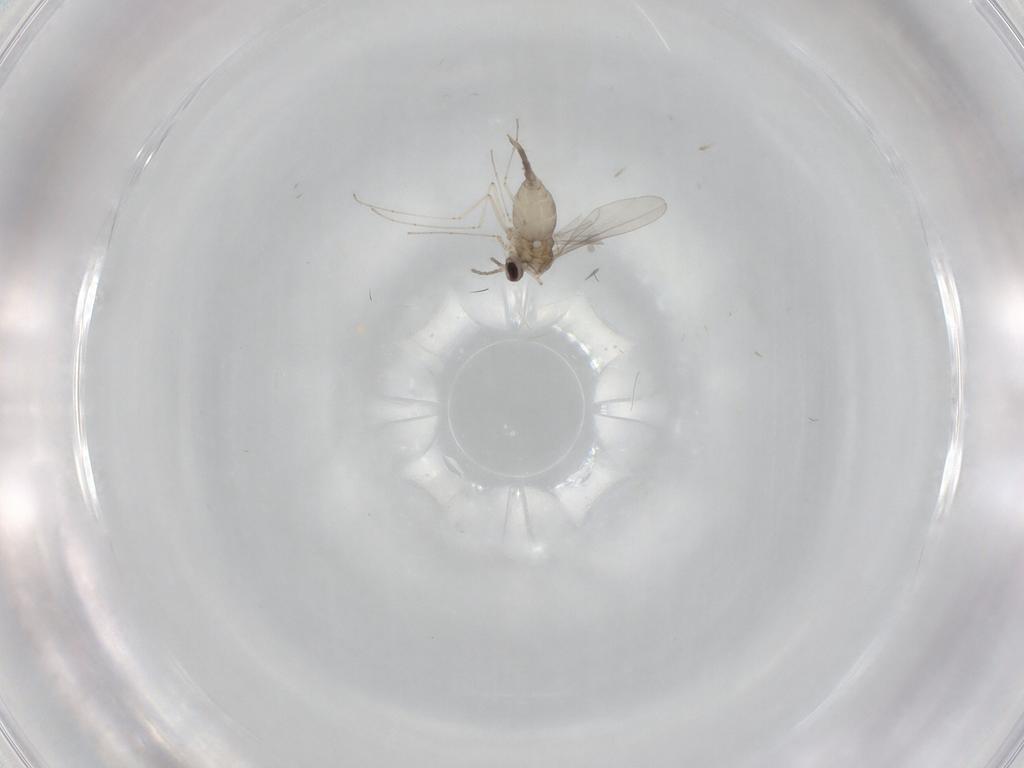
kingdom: Animalia
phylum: Arthropoda
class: Insecta
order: Diptera
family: Cecidomyiidae
